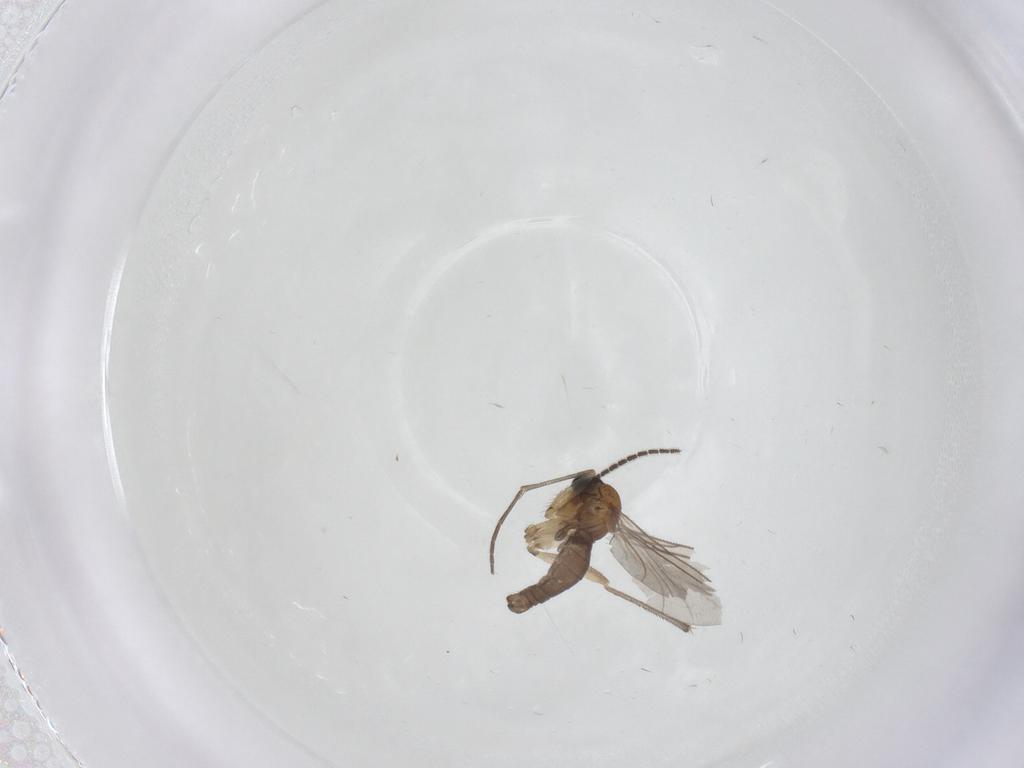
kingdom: Animalia
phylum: Arthropoda
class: Insecta
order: Diptera
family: Sciaridae
